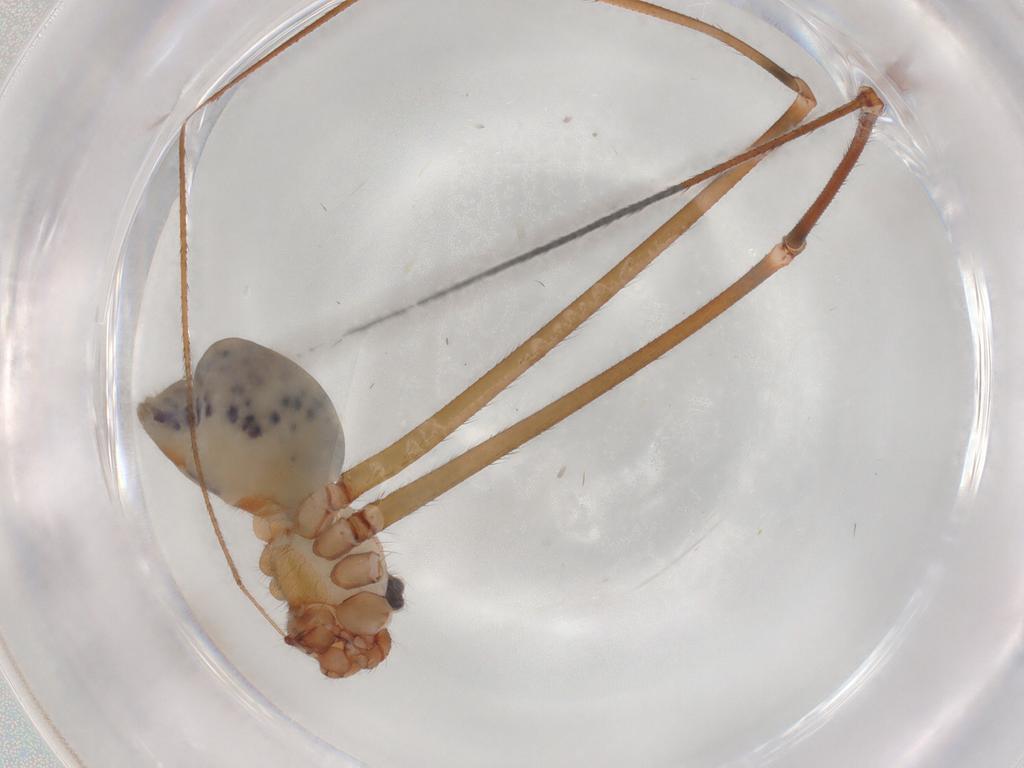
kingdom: Animalia
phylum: Arthropoda
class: Arachnida
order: Araneae
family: Pholcidae
